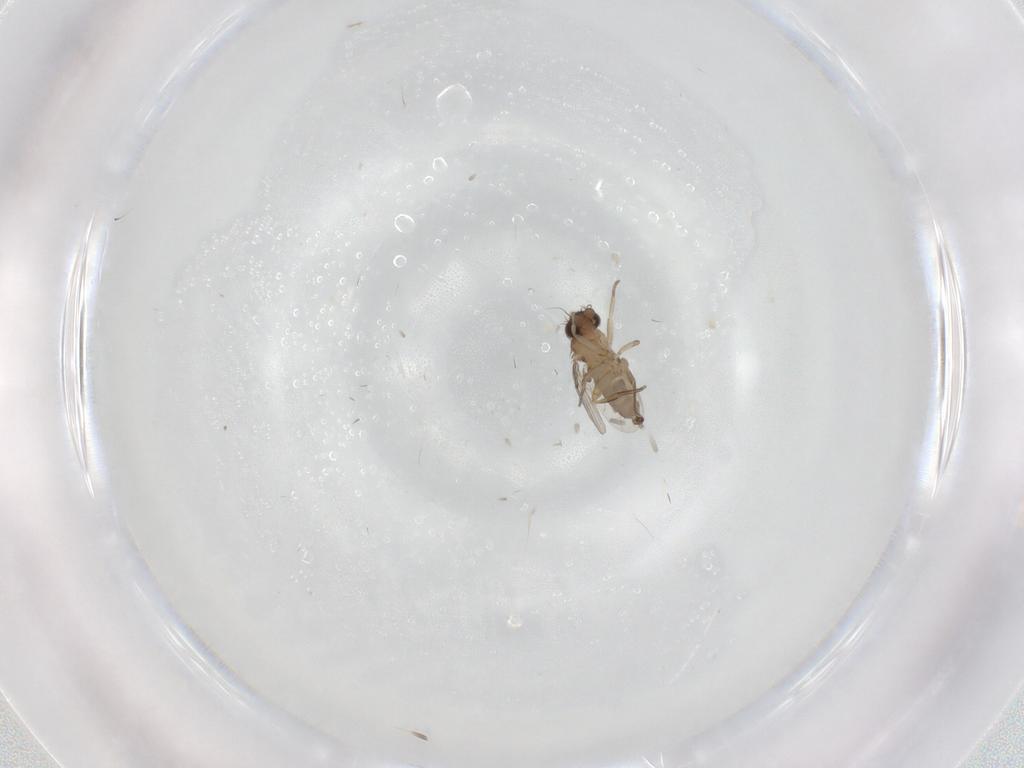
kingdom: Animalia
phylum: Arthropoda
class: Insecta
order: Diptera
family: Phoridae
